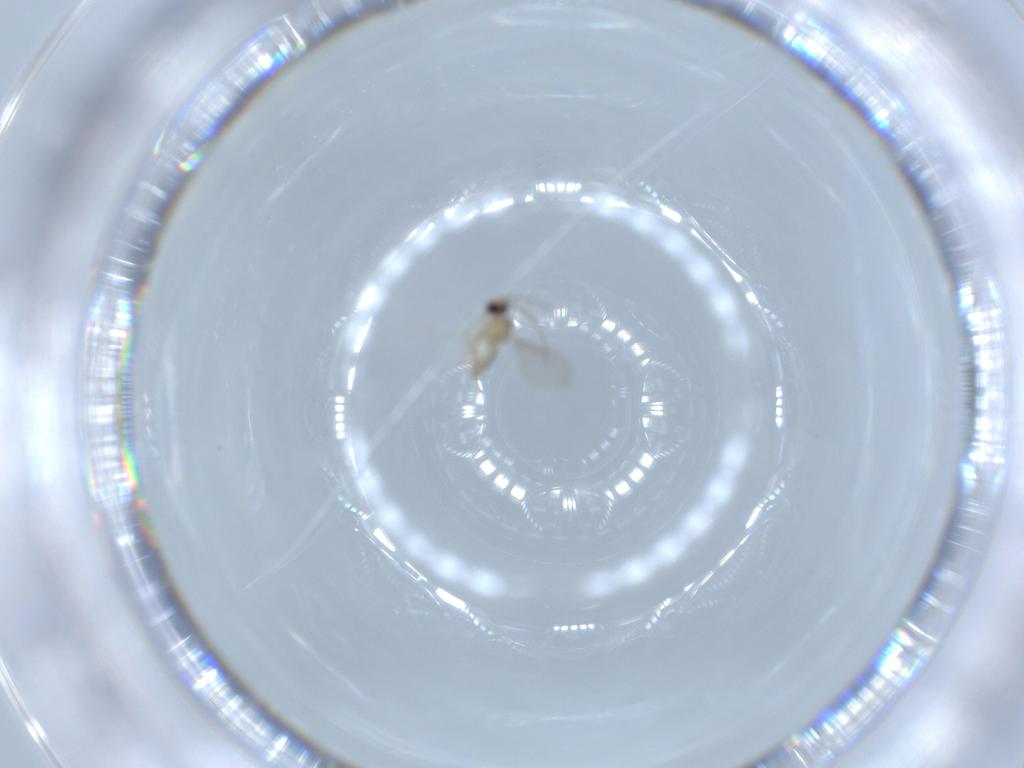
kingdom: Animalia
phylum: Arthropoda
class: Insecta
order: Diptera
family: Cecidomyiidae
